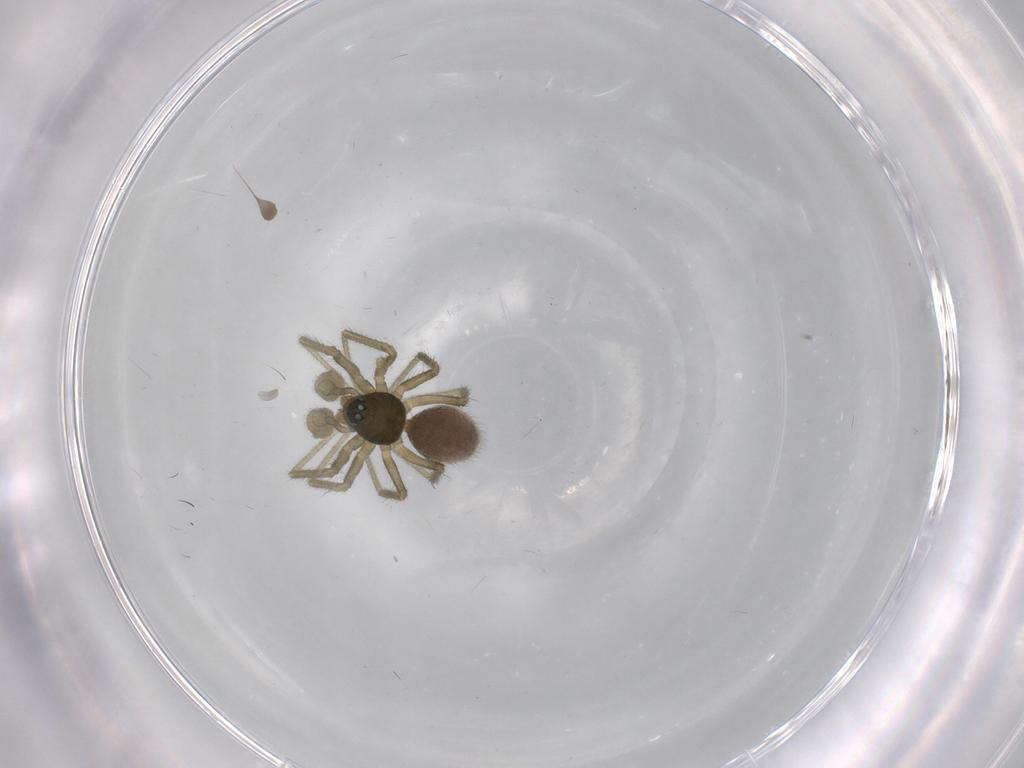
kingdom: Animalia
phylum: Arthropoda
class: Arachnida
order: Araneae
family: Linyphiidae
